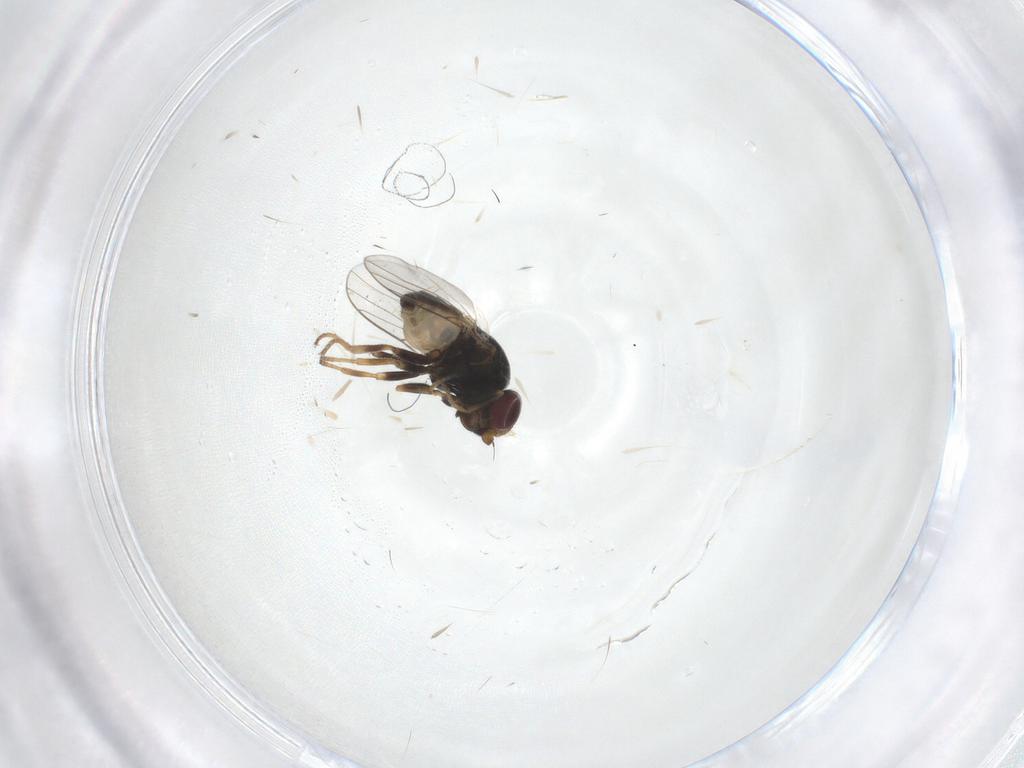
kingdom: Animalia
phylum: Arthropoda
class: Insecta
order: Diptera
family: Chloropidae
